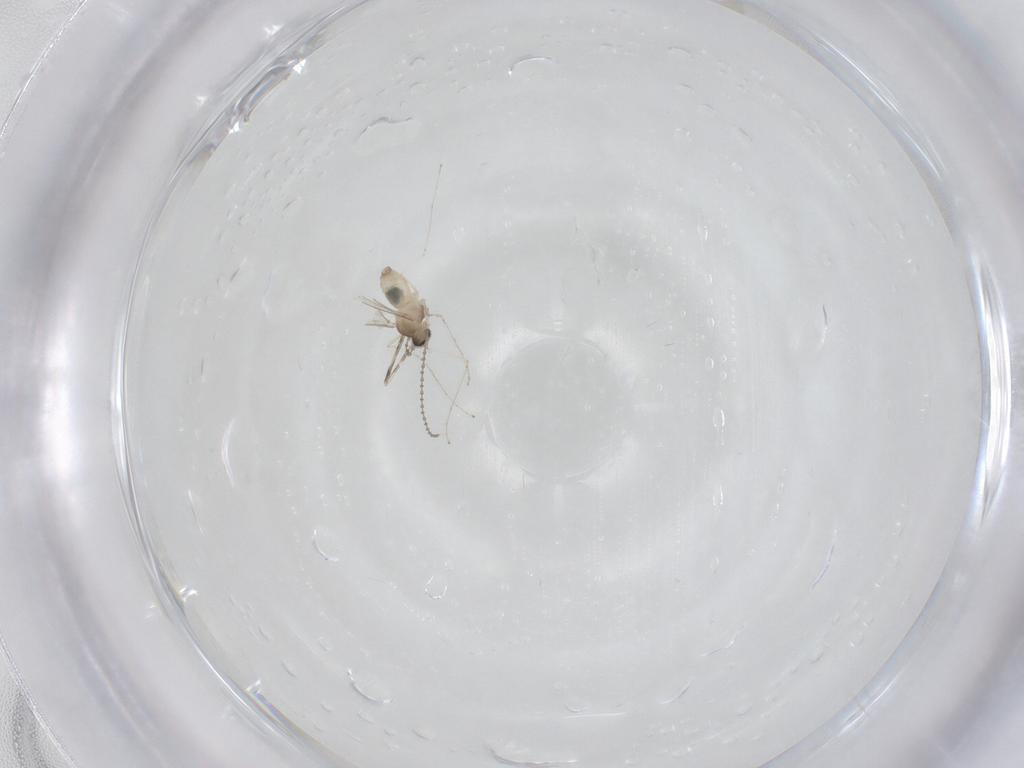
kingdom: Animalia
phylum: Arthropoda
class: Insecta
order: Diptera
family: Cecidomyiidae
